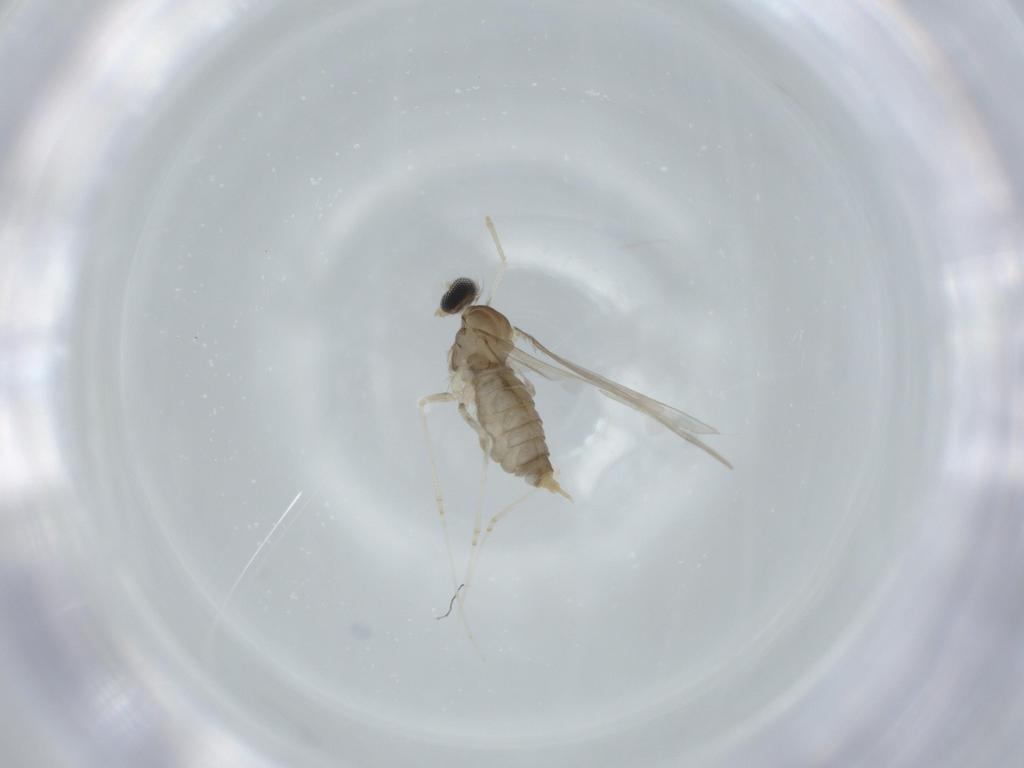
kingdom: Animalia
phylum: Arthropoda
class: Insecta
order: Diptera
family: Cecidomyiidae
